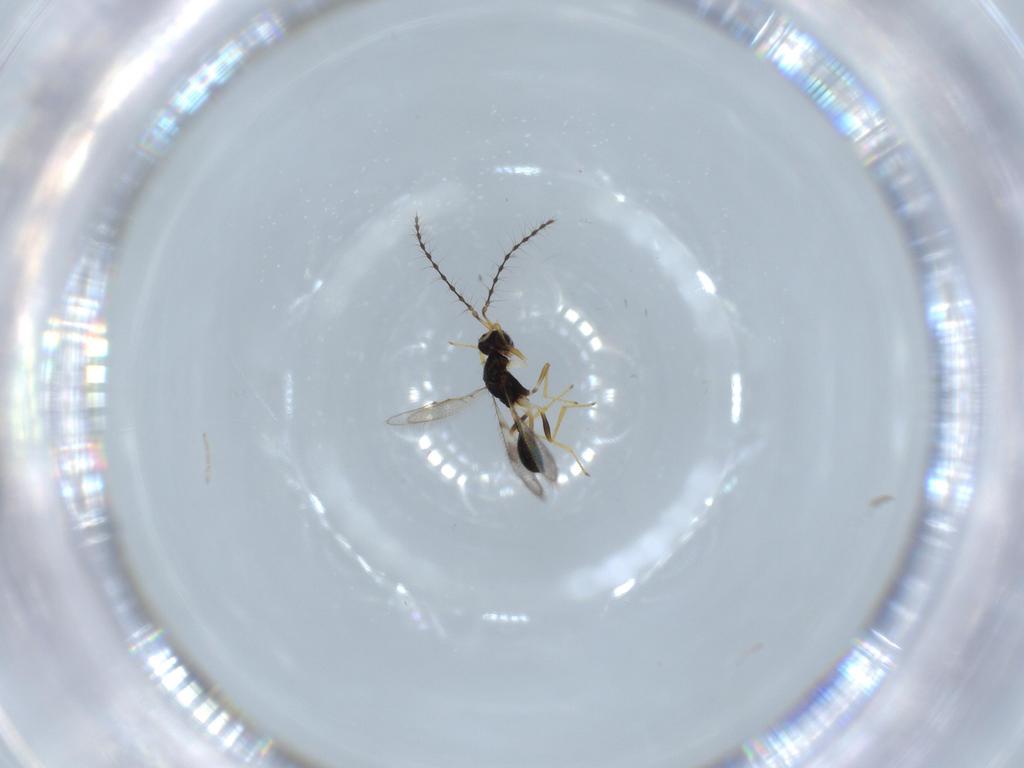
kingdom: Animalia
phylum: Arthropoda
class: Insecta
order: Hymenoptera
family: Diparidae
